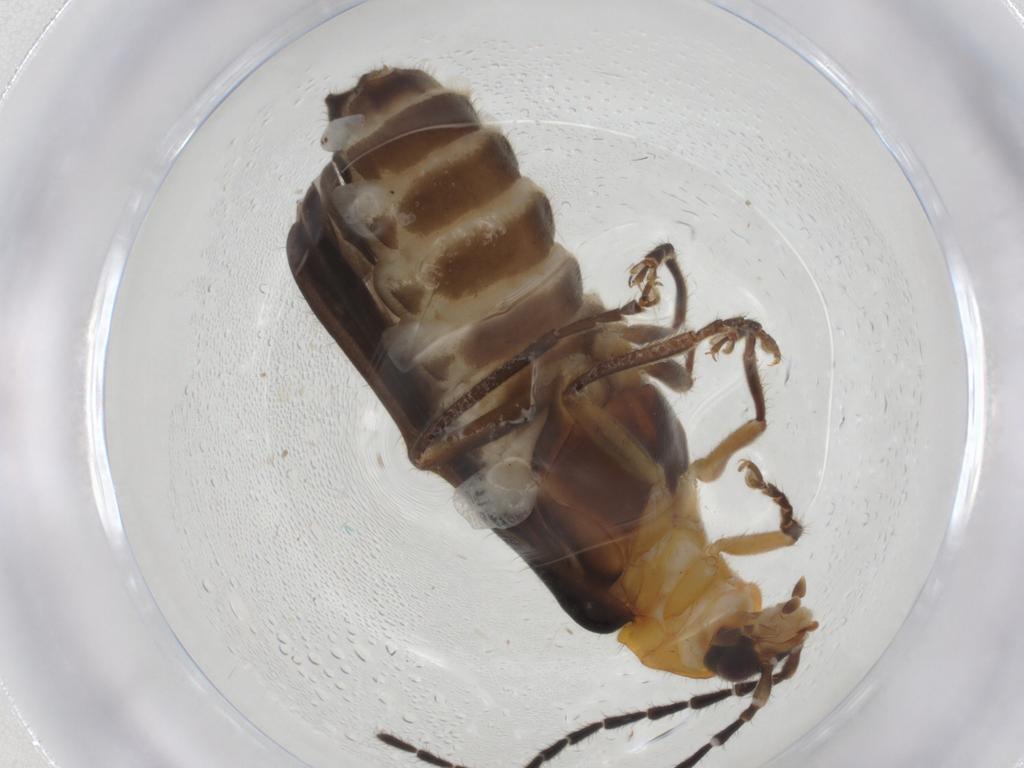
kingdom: Animalia
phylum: Arthropoda
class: Insecta
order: Coleoptera
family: Cantharidae
